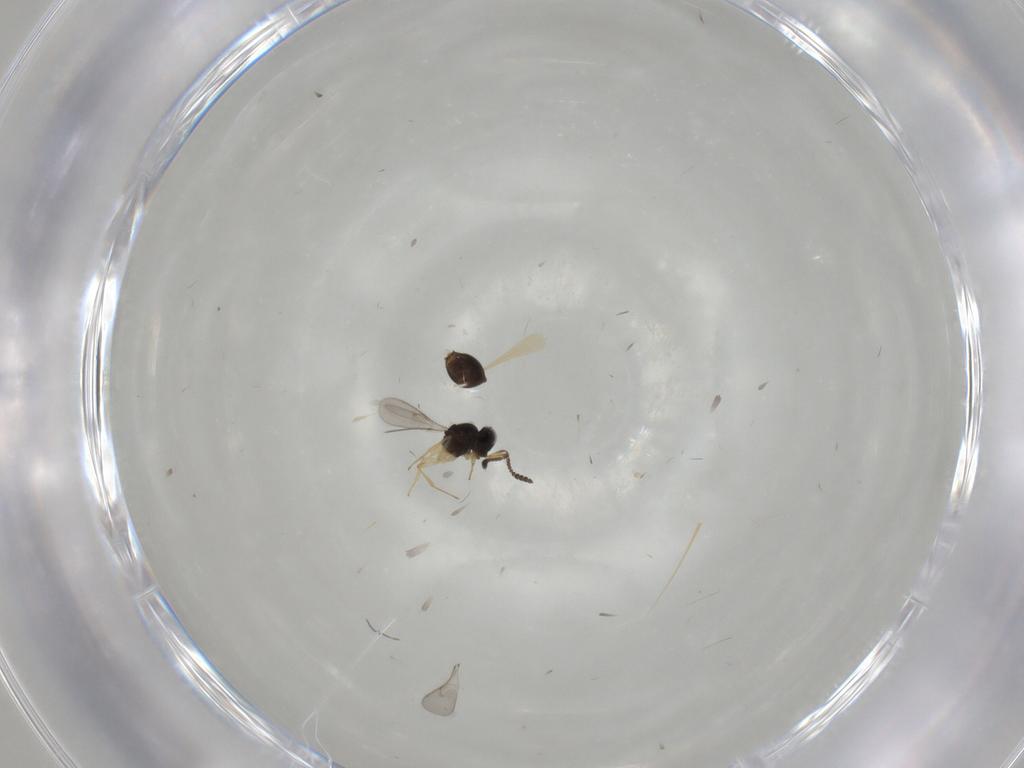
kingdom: Animalia
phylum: Arthropoda
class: Insecta
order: Hymenoptera
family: Scelionidae
